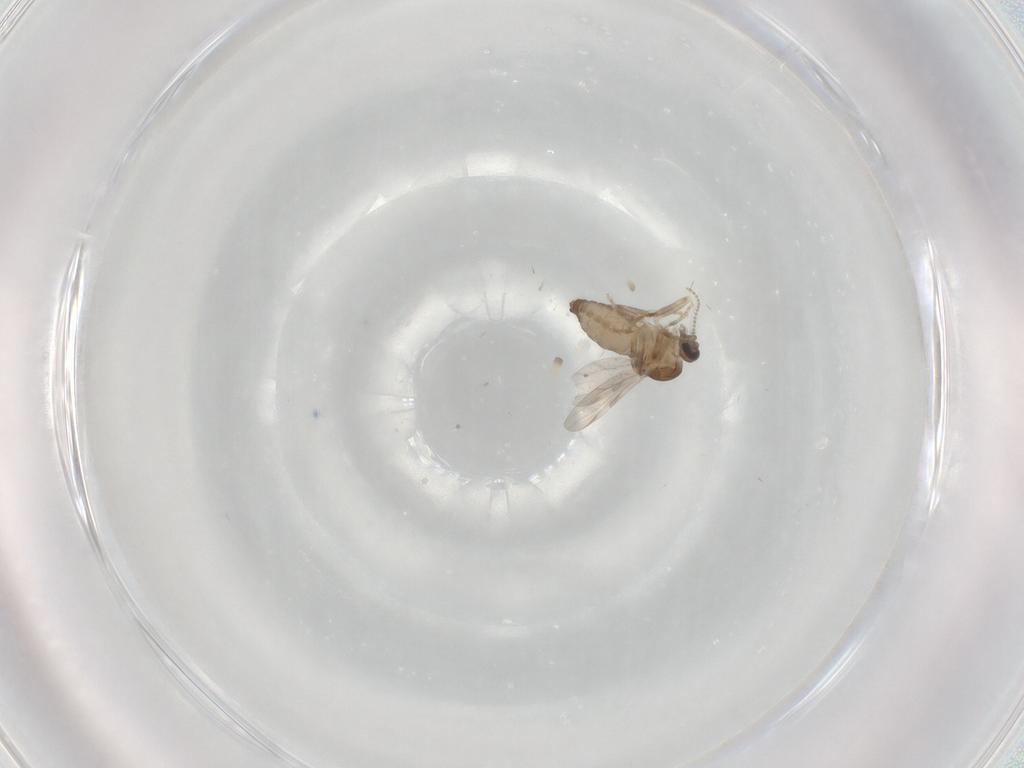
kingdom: Animalia
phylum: Arthropoda
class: Insecta
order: Diptera
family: Ceratopogonidae
